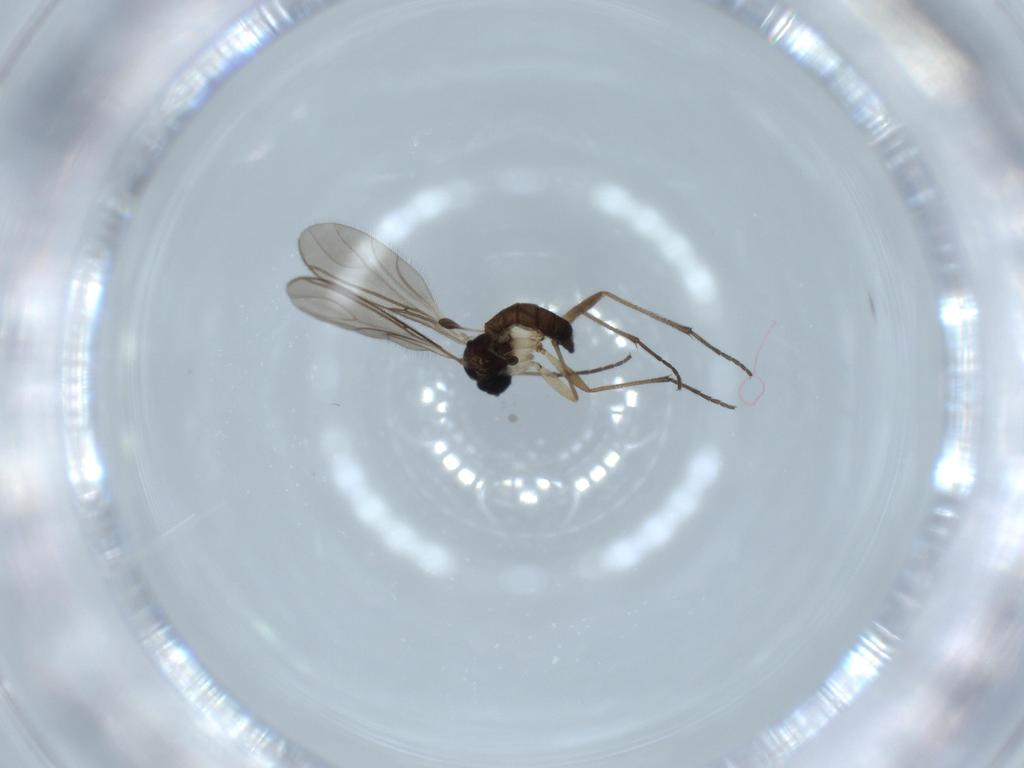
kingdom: Animalia
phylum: Arthropoda
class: Insecta
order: Diptera
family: Sciaridae
